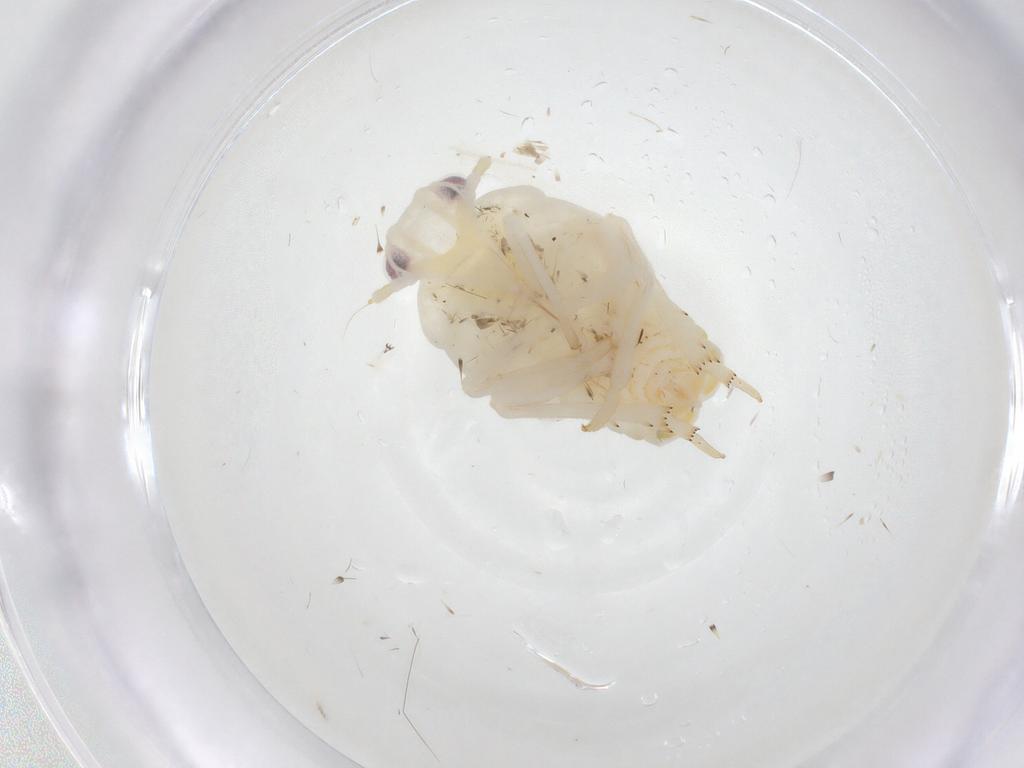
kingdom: Animalia
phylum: Arthropoda
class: Insecta
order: Hemiptera
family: Flatidae
